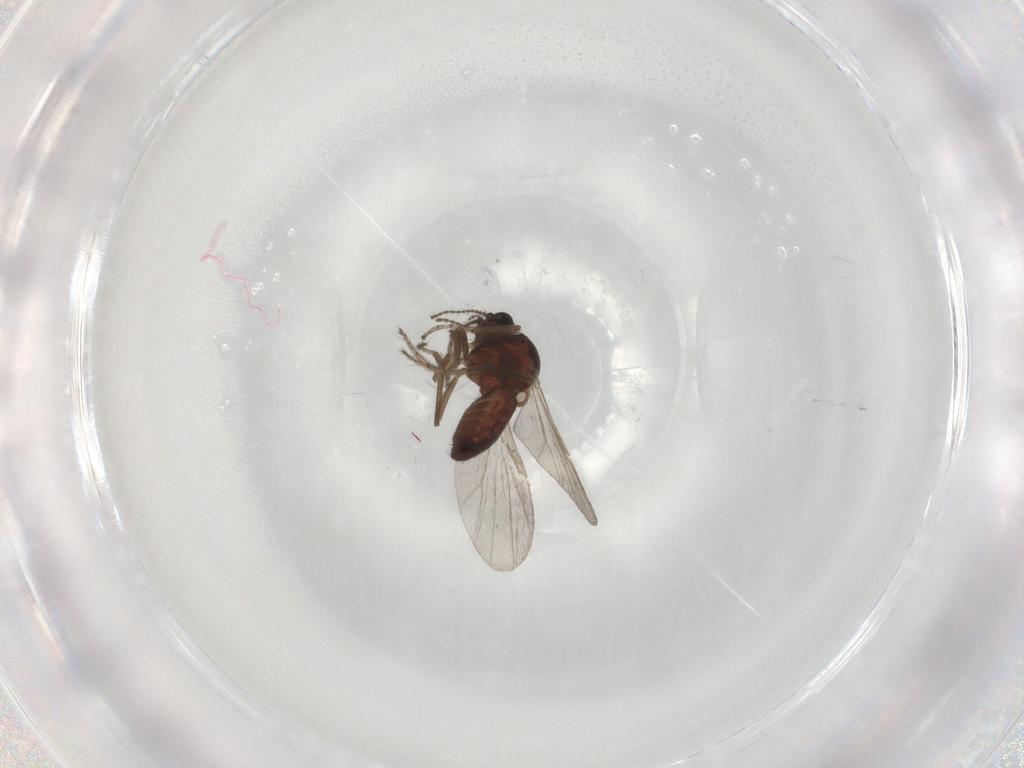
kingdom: Animalia
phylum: Arthropoda
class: Insecta
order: Diptera
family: Ceratopogonidae
